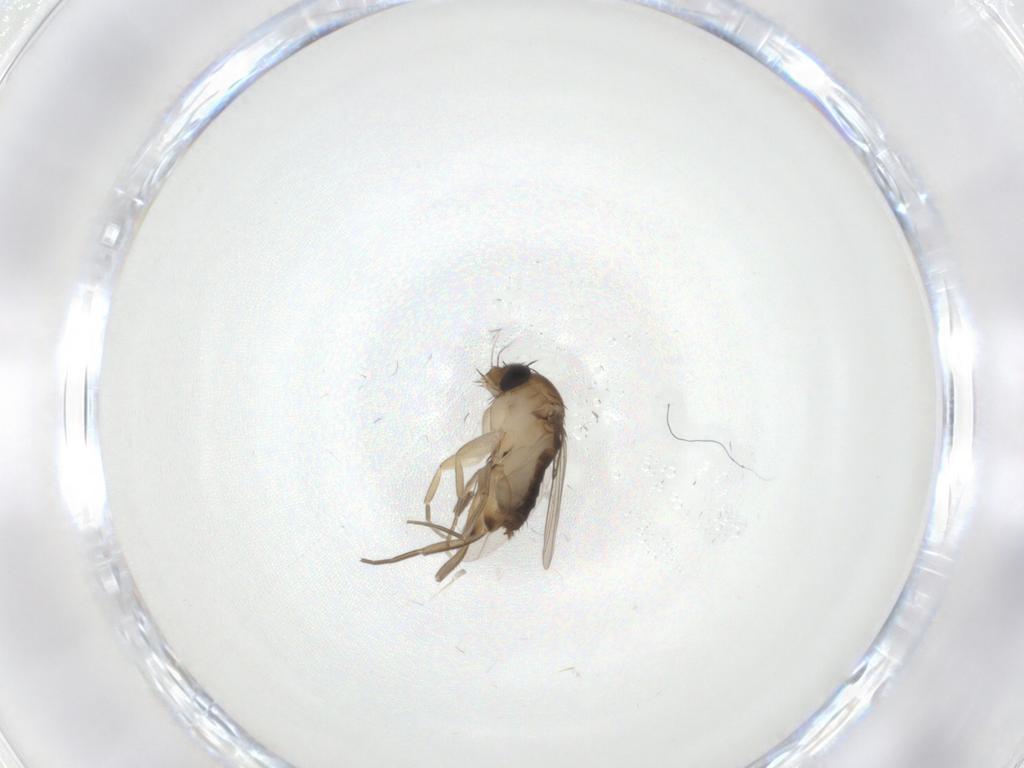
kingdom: Animalia
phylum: Arthropoda
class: Insecta
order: Diptera
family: Phoridae
